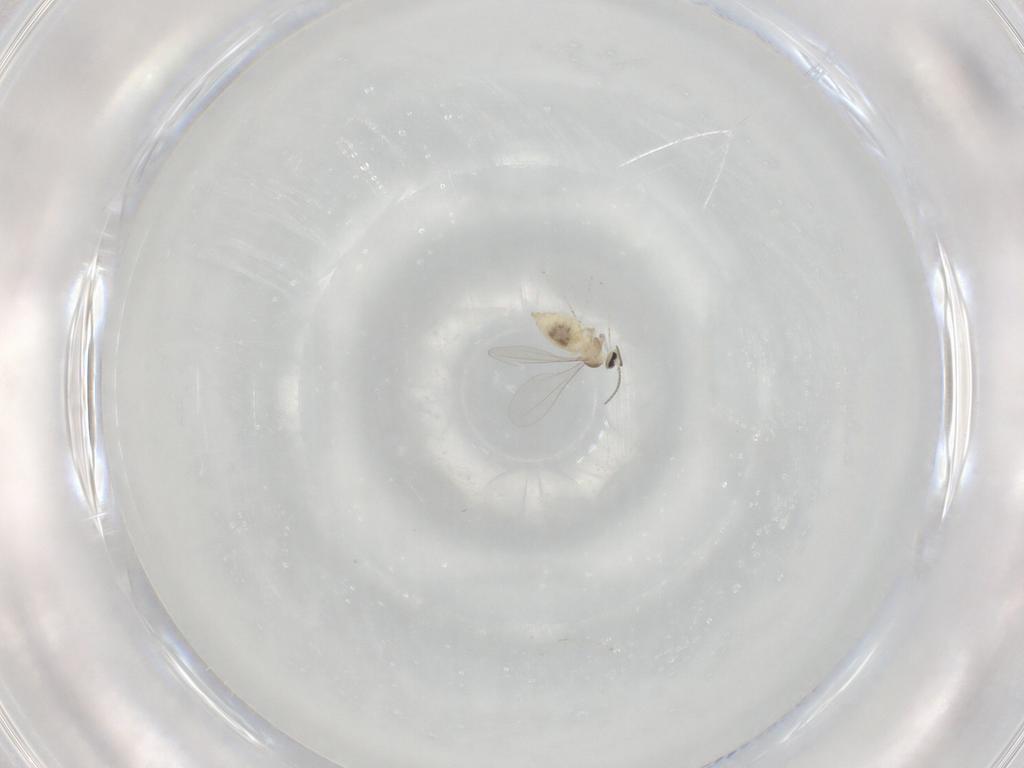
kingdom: Animalia
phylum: Arthropoda
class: Insecta
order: Diptera
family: Cecidomyiidae
